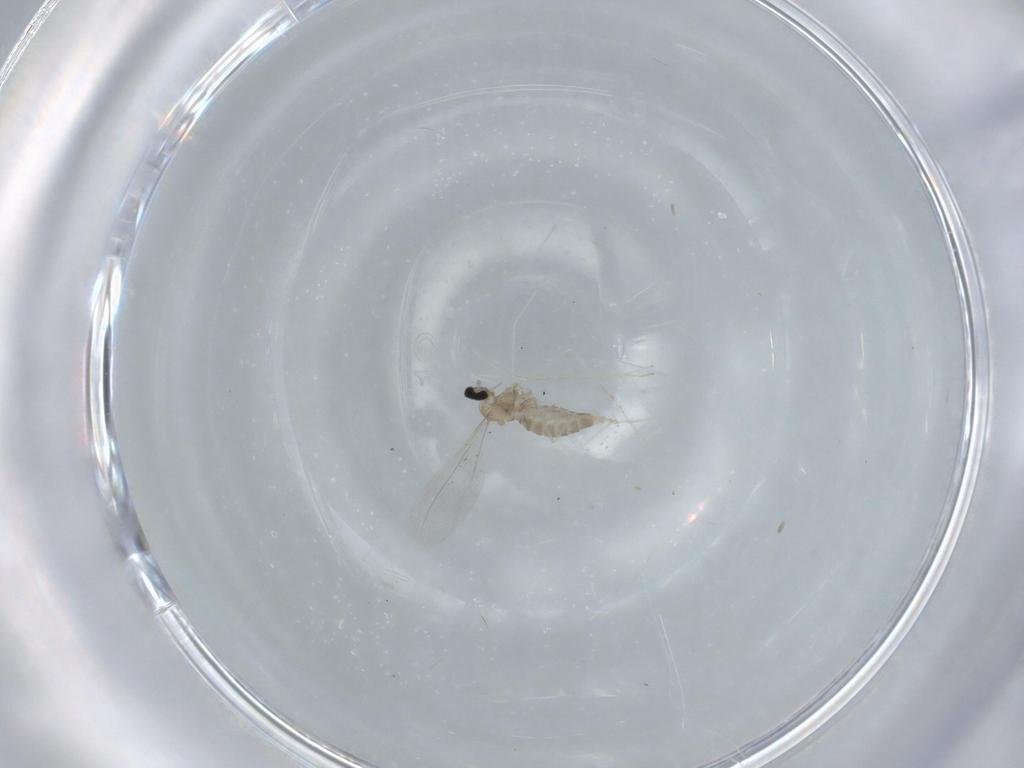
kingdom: Animalia
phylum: Arthropoda
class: Insecta
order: Diptera
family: Cecidomyiidae
